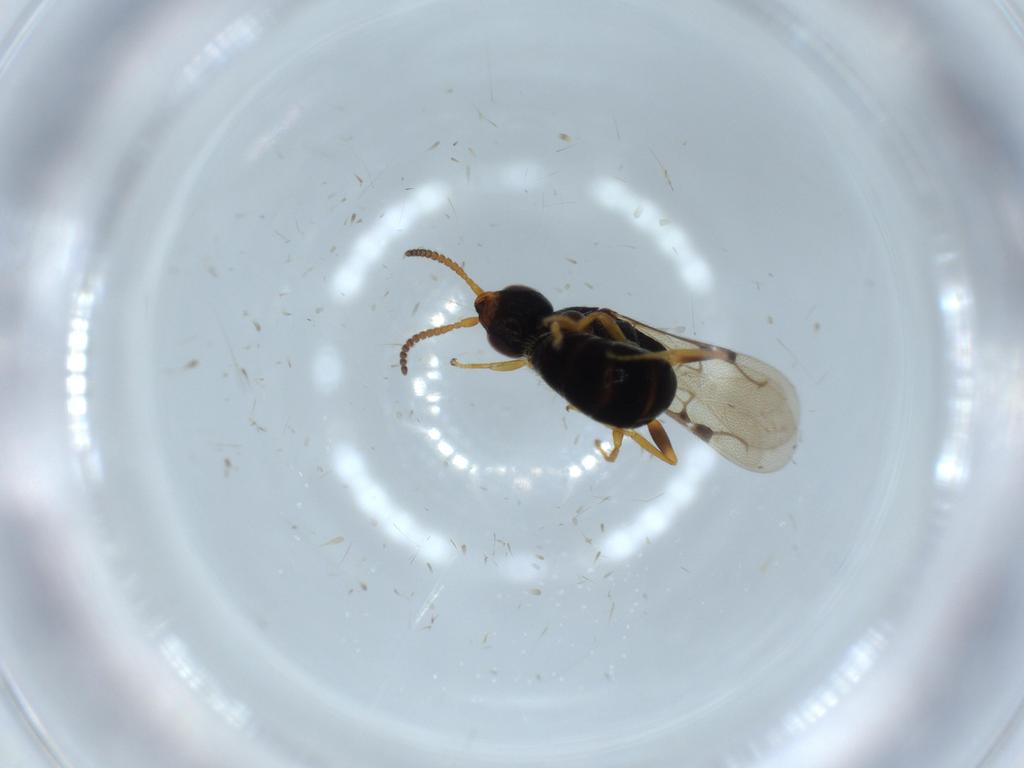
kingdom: Animalia
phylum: Arthropoda
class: Insecta
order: Hymenoptera
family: Bethylidae
